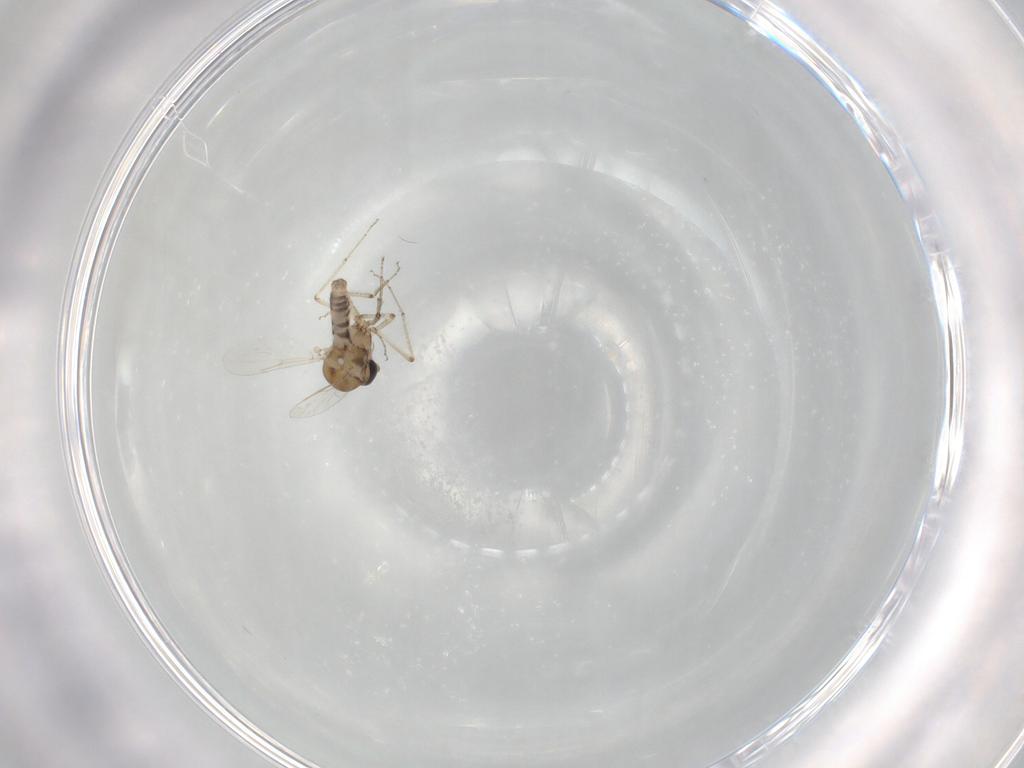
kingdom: Animalia
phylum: Arthropoda
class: Insecta
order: Diptera
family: Ceratopogonidae
